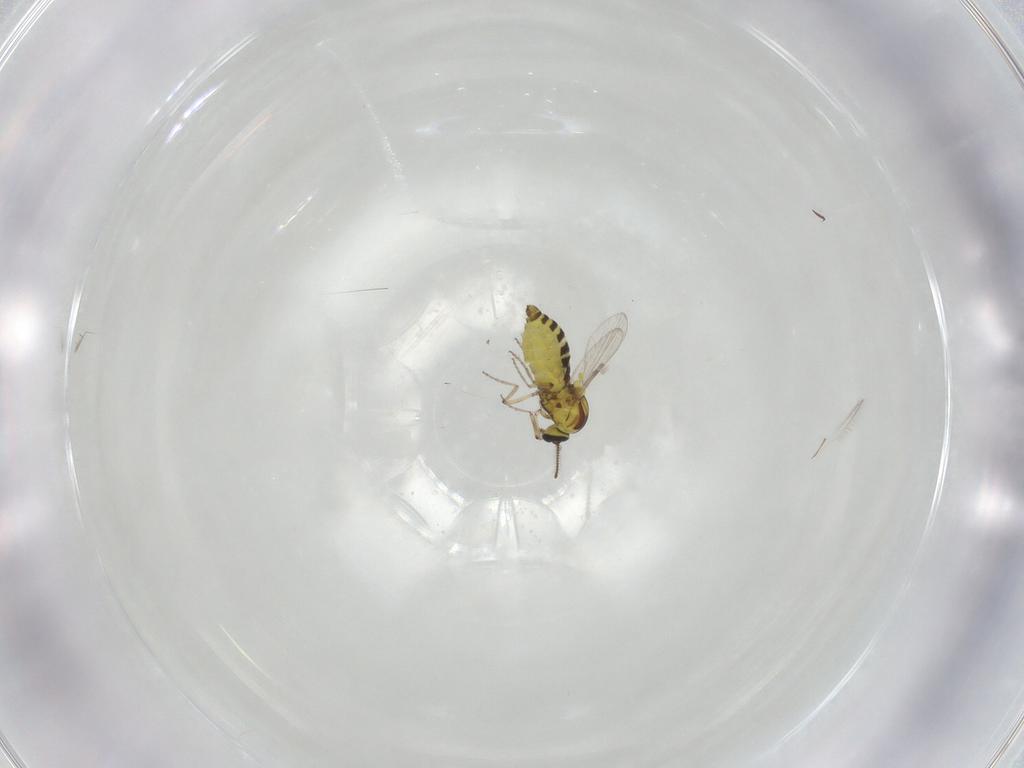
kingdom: Animalia
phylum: Arthropoda
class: Insecta
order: Diptera
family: Ceratopogonidae
